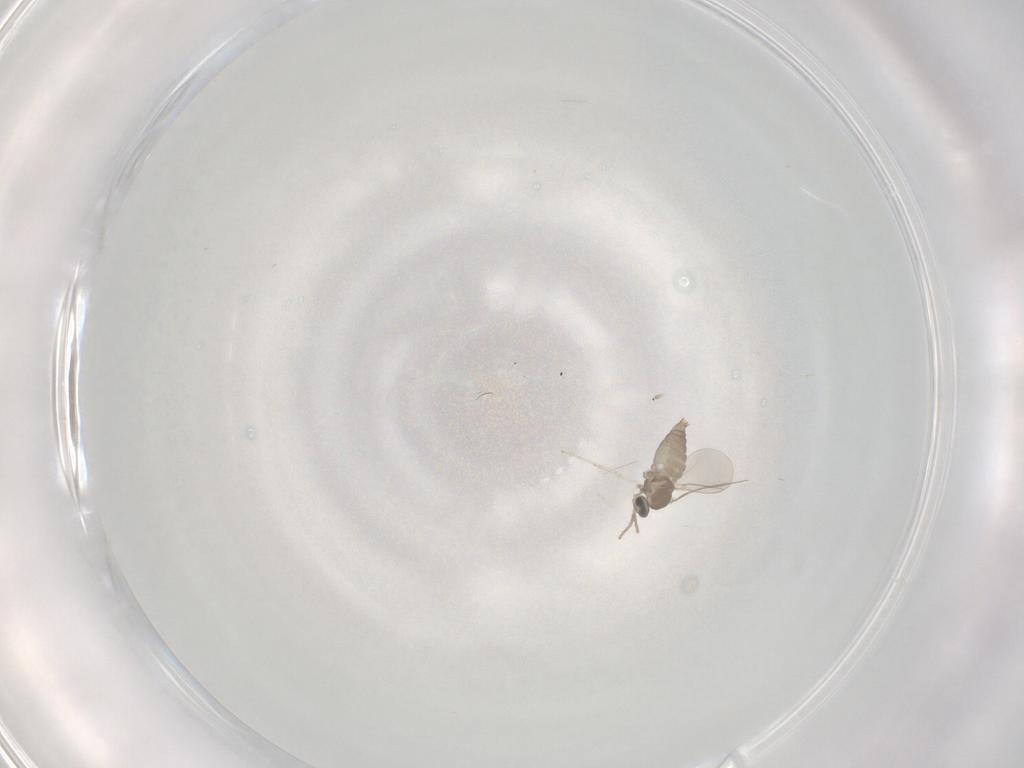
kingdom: Animalia
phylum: Arthropoda
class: Insecta
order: Diptera
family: Cecidomyiidae
